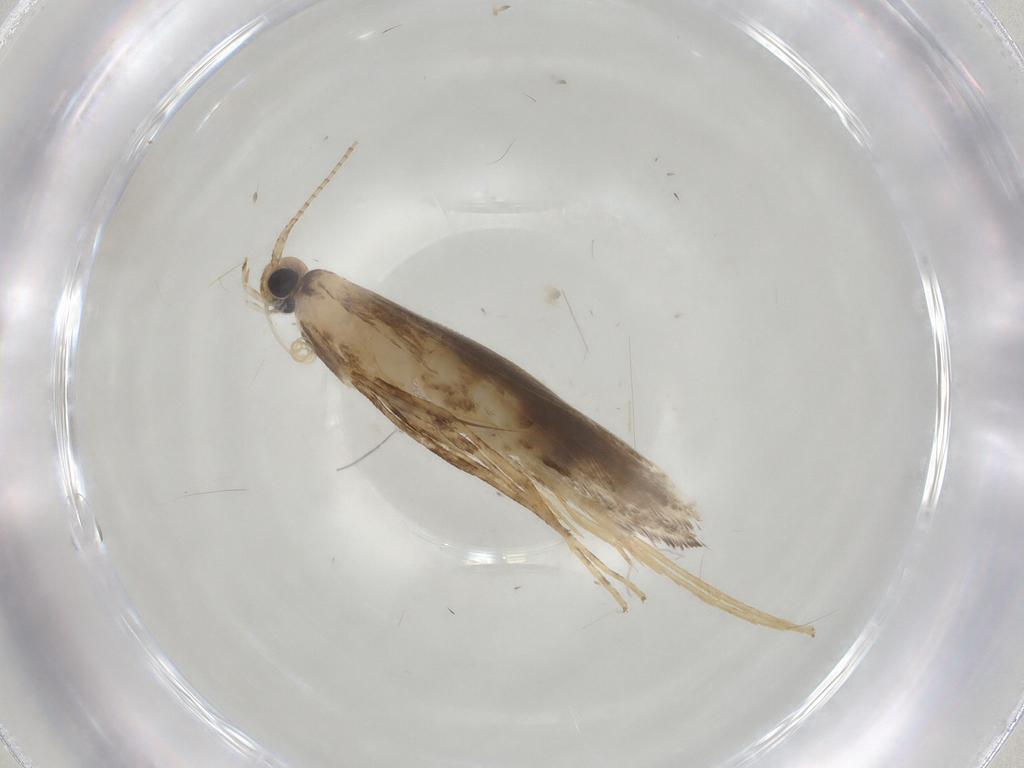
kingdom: Animalia
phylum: Arthropoda
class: Insecta
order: Lepidoptera
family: Gracillariidae
